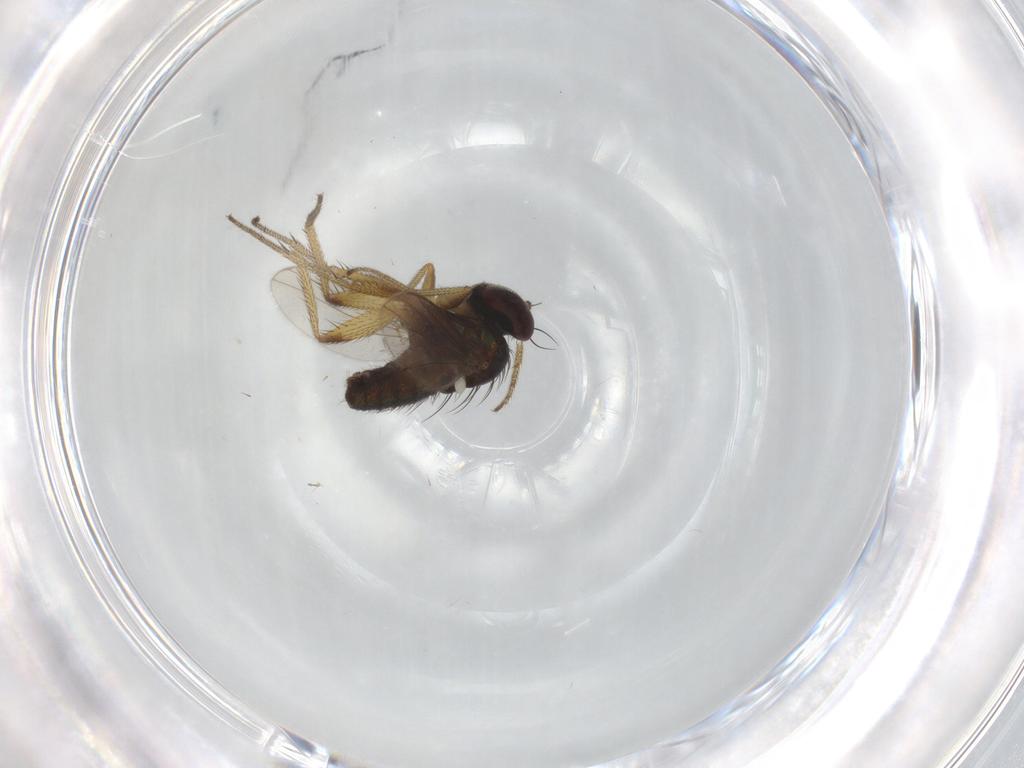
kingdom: Animalia
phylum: Arthropoda
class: Insecta
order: Diptera
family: Dolichopodidae
